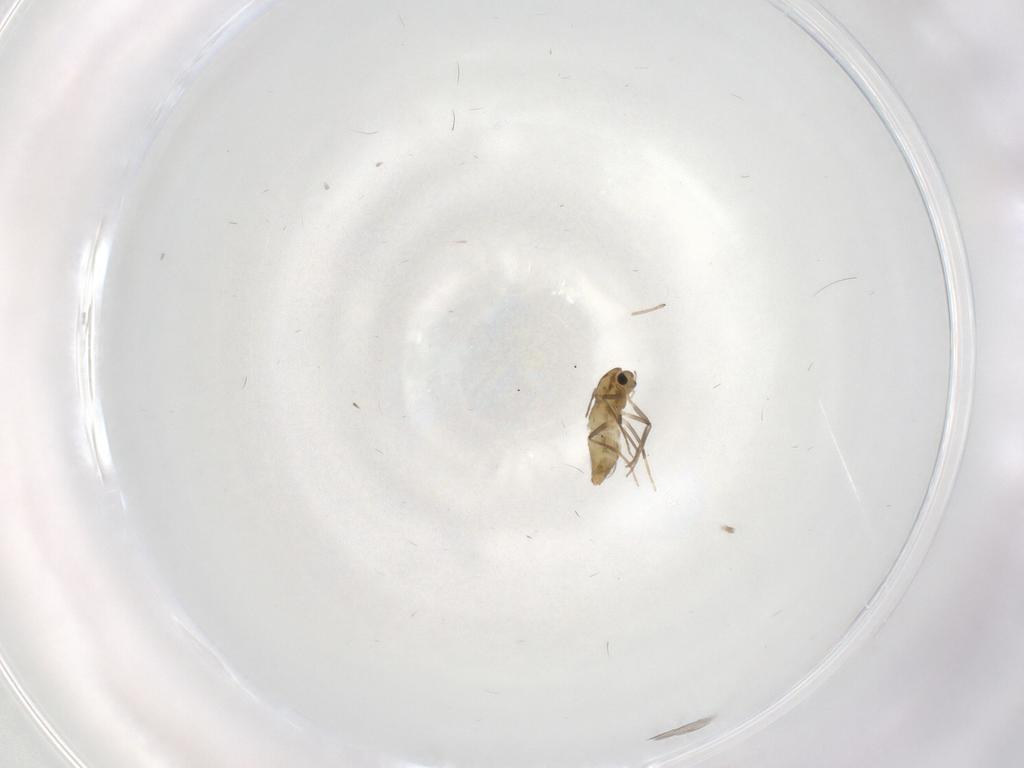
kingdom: Animalia
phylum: Arthropoda
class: Insecta
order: Diptera
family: Chironomidae
